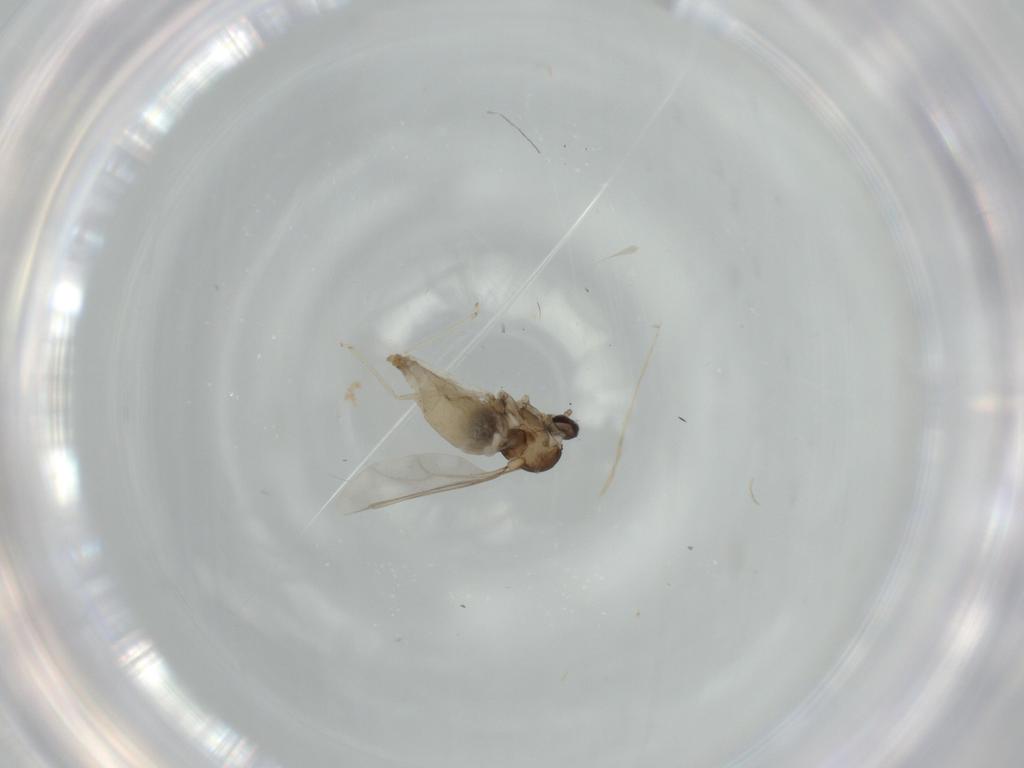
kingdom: Animalia
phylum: Arthropoda
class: Insecta
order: Diptera
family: Cecidomyiidae
